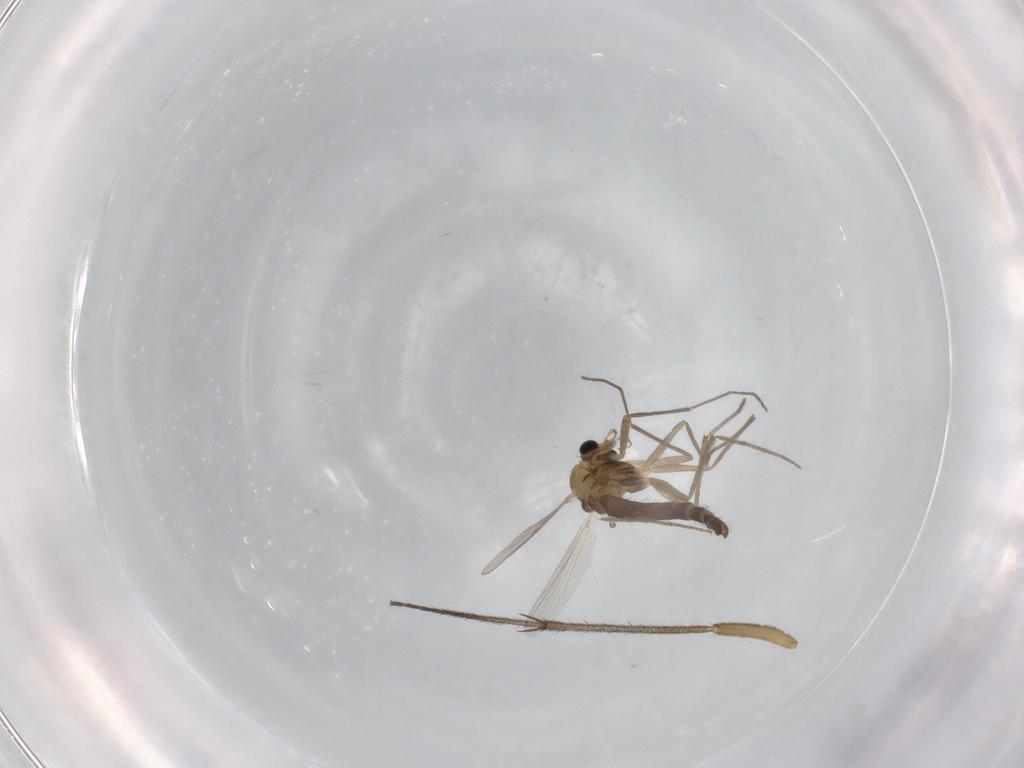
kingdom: Animalia
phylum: Arthropoda
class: Insecta
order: Diptera
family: Chironomidae
